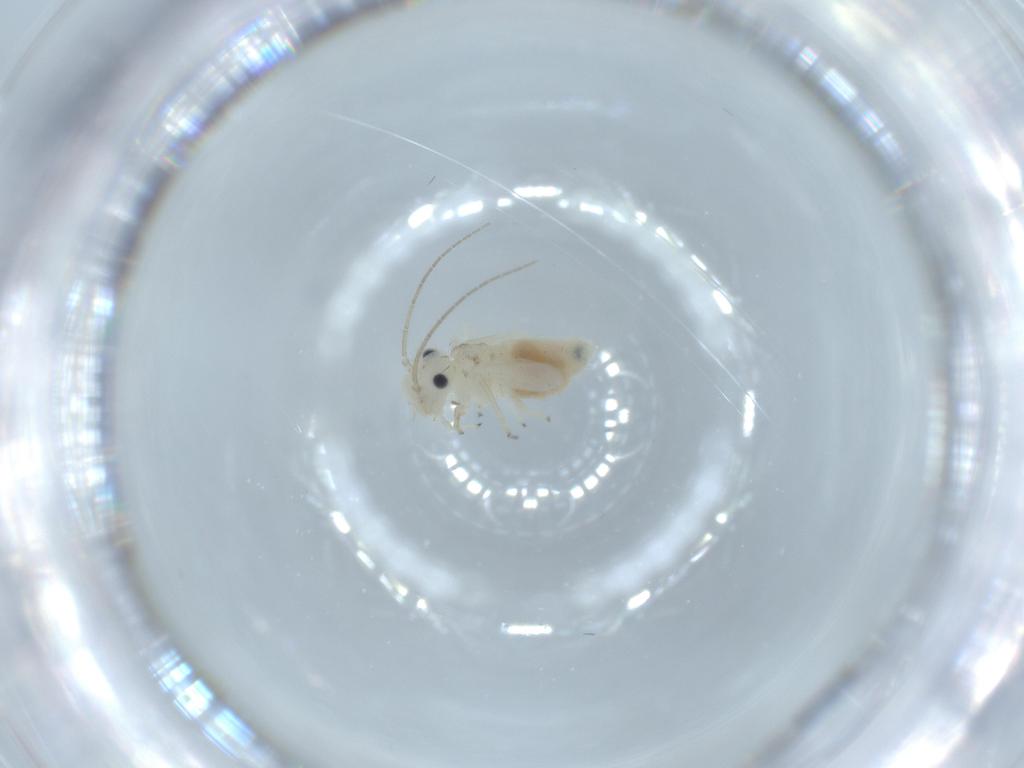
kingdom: Animalia
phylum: Arthropoda
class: Insecta
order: Psocodea
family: Caeciliusidae
